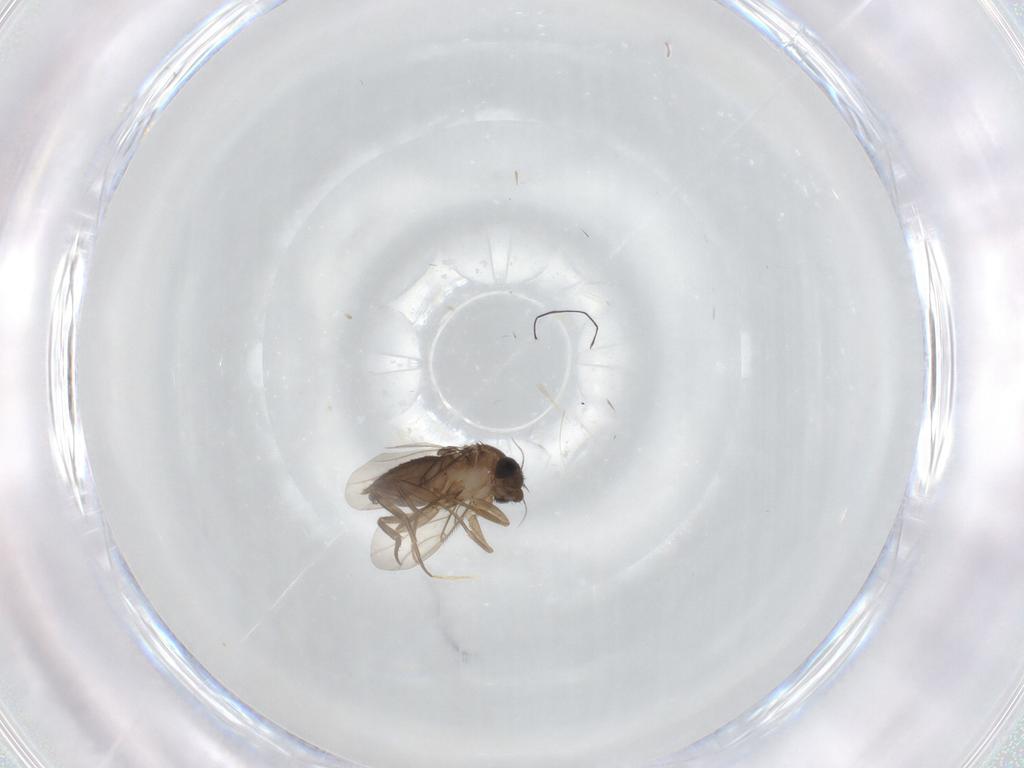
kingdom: Animalia
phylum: Arthropoda
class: Insecta
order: Diptera
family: Phoridae
